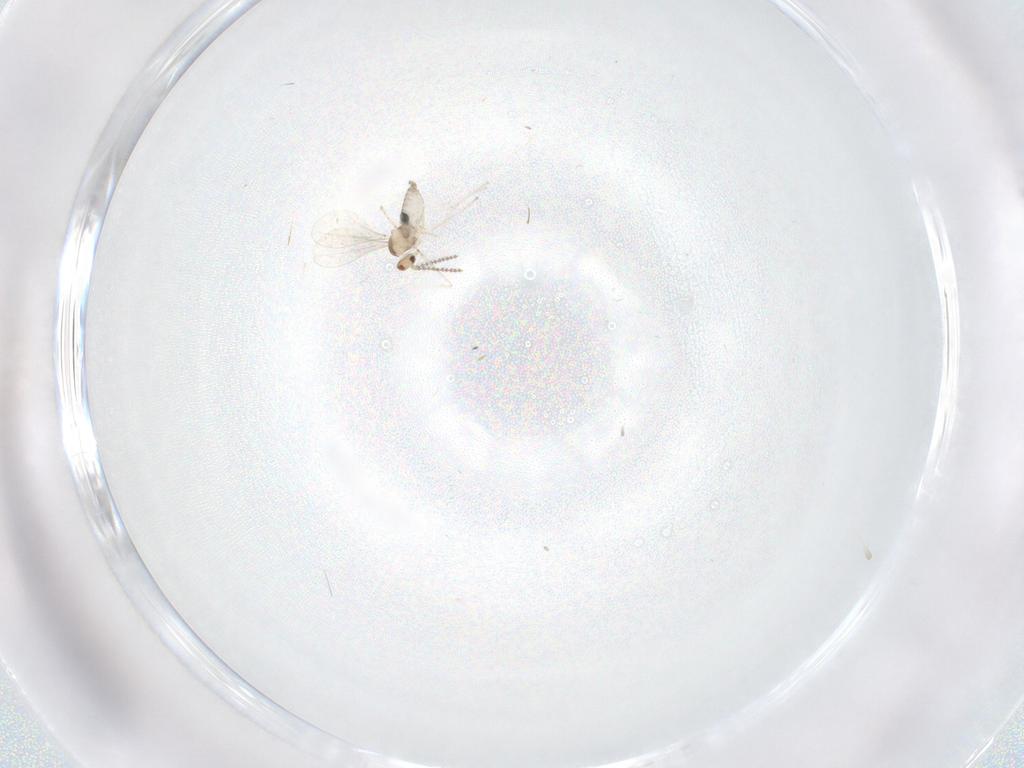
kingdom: Animalia
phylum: Arthropoda
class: Insecta
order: Diptera
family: Cecidomyiidae
